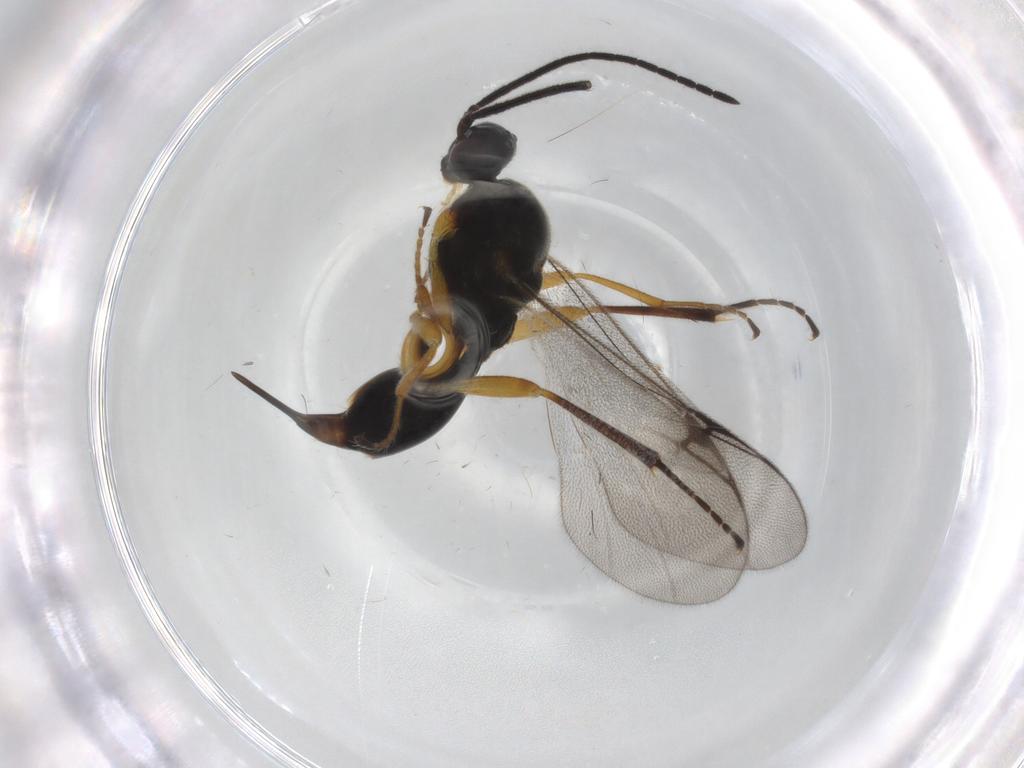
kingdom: Animalia
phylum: Arthropoda
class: Insecta
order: Hymenoptera
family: Proctotrupidae
